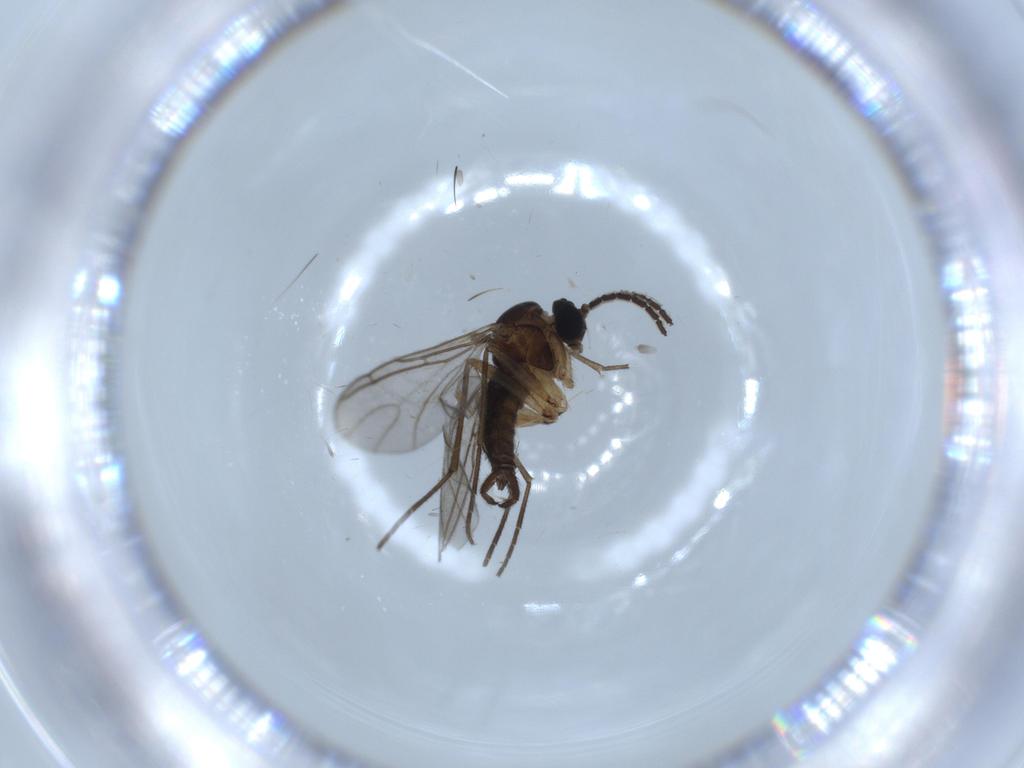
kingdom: Animalia
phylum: Arthropoda
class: Insecta
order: Diptera
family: Sciaridae
